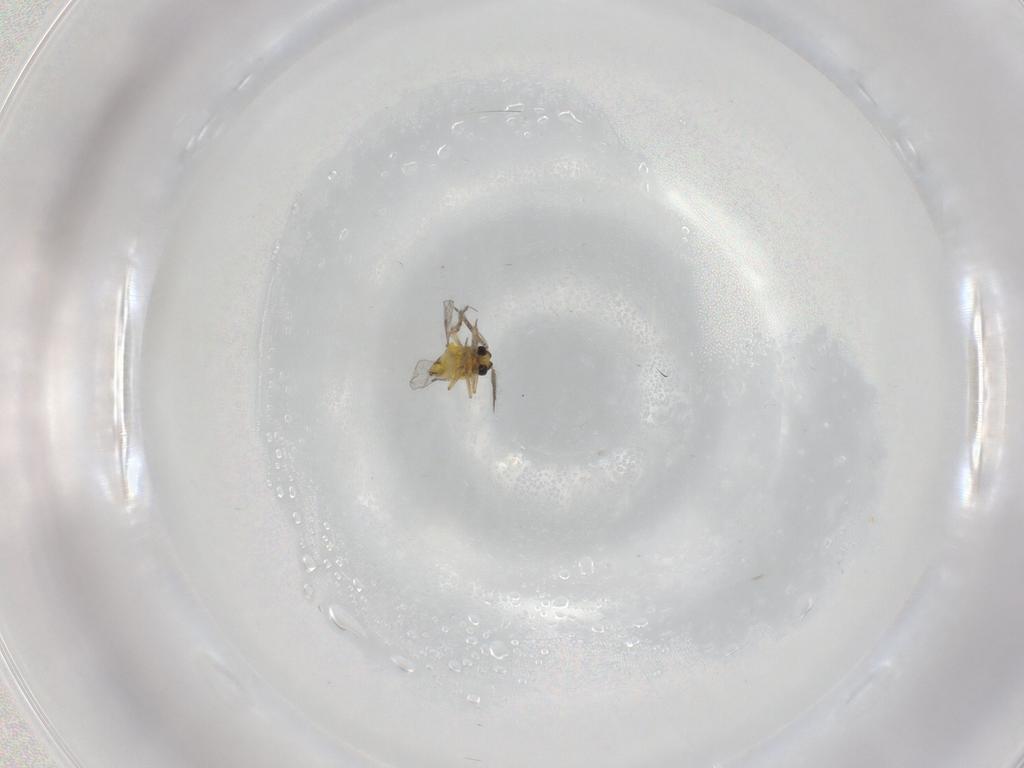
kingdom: Animalia
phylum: Arthropoda
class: Insecta
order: Diptera
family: Ceratopogonidae
